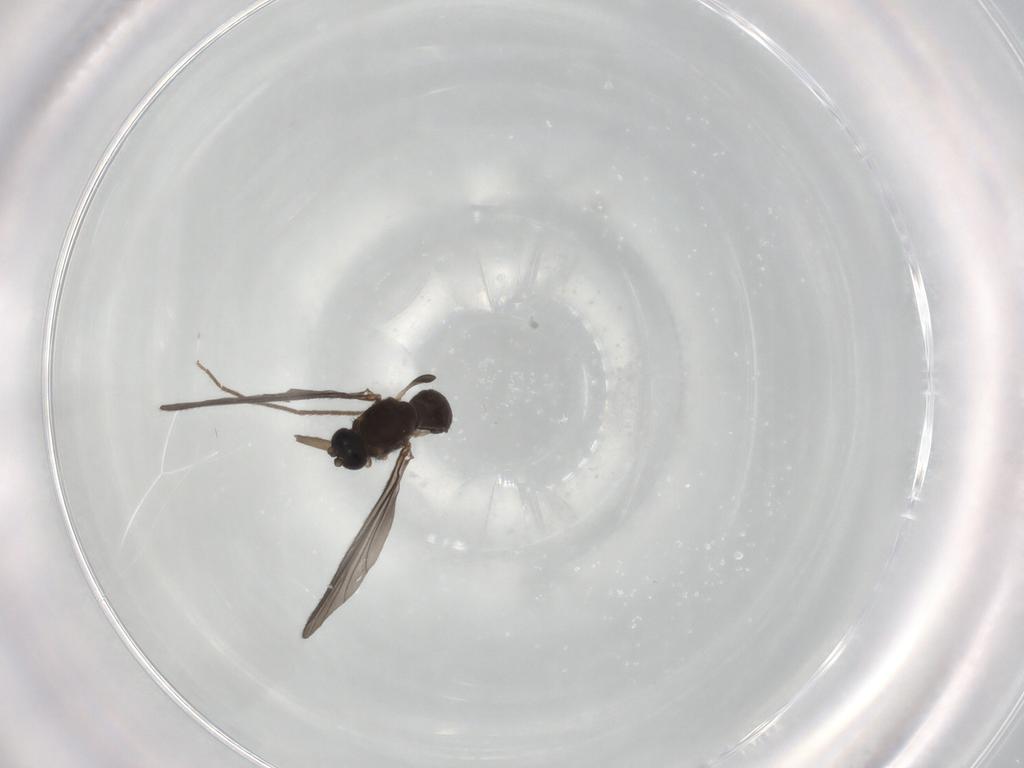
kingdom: Animalia
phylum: Arthropoda
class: Insecta
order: Diptera
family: Chironomidae
